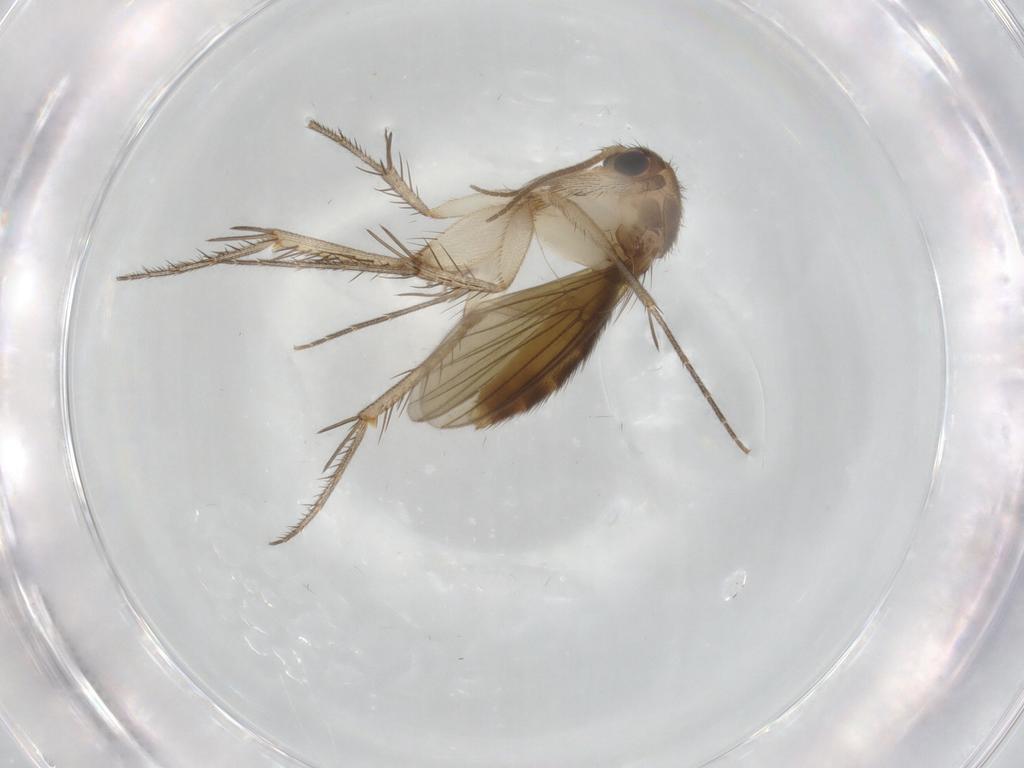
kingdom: Animalia
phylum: Arthropoda
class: Insecta
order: Diptera
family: Mycetophilidae
